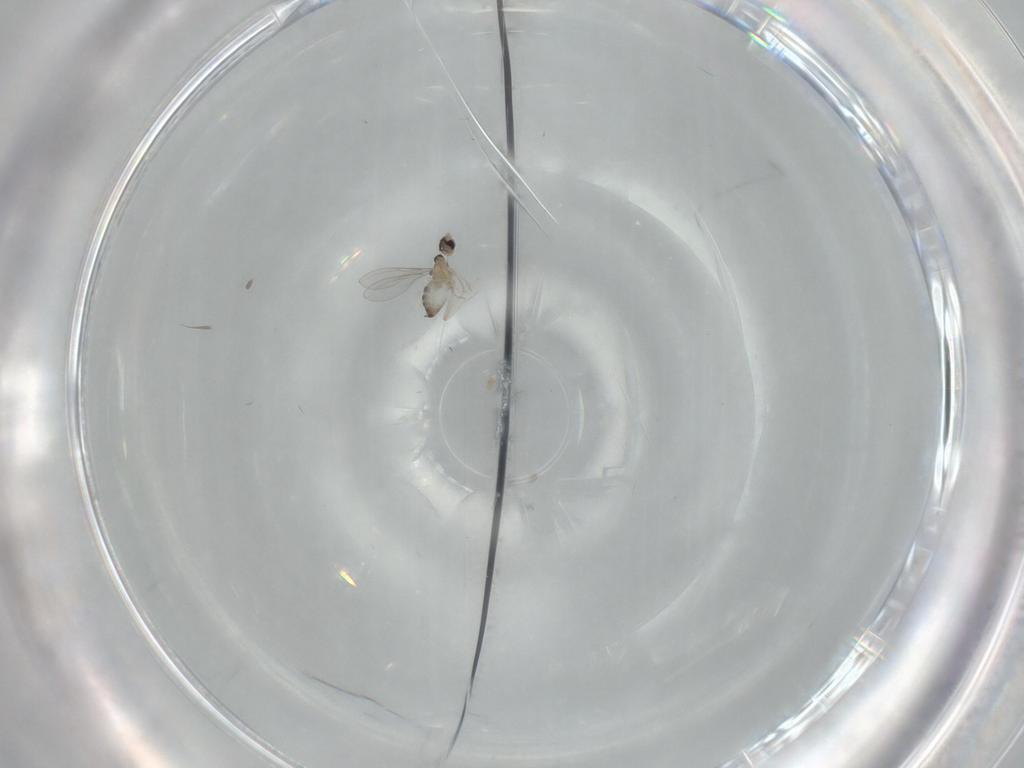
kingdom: Animalia
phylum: Arthropoda
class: Insecta
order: Diptera
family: Cecidomyiidae
